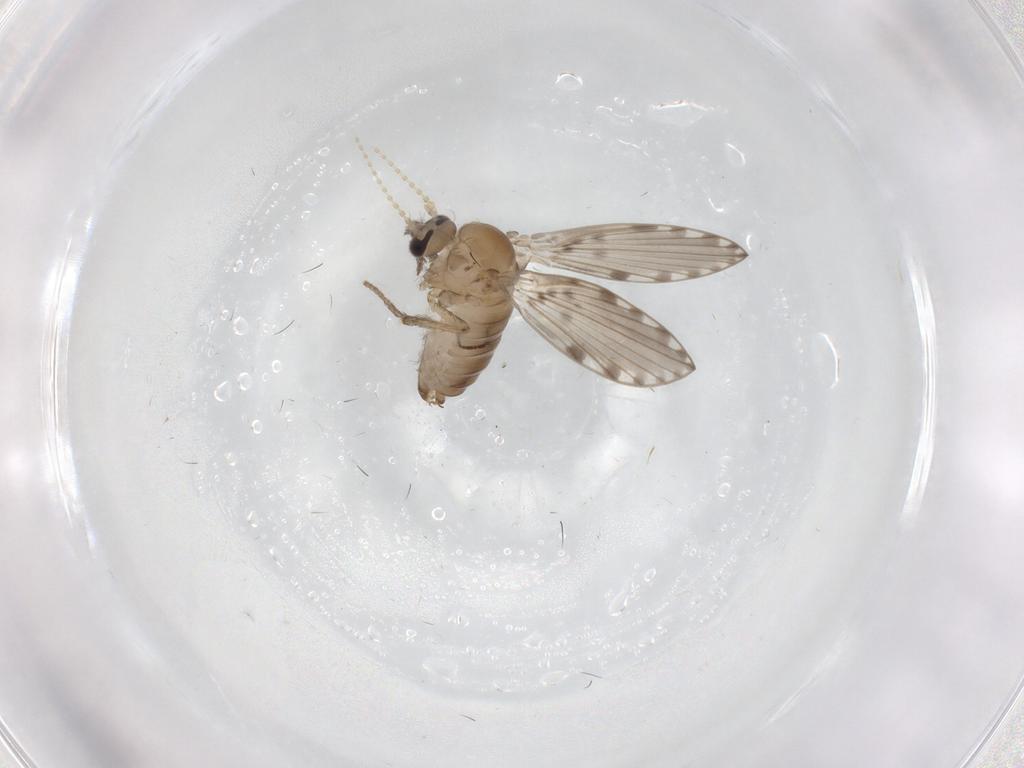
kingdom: Animalia
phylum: Arthropoda
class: Insecta
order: Diptera
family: Psychodidae
